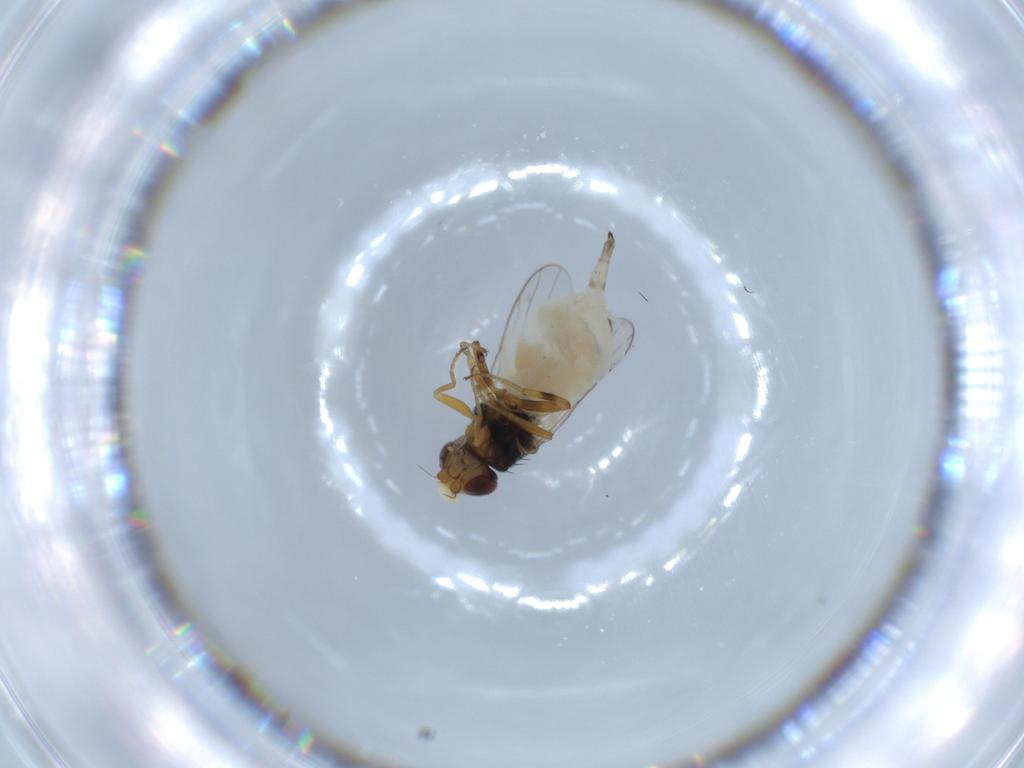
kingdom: Animalia
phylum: Arthropoda
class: Insecta
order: Diptera
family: Chloropidae
